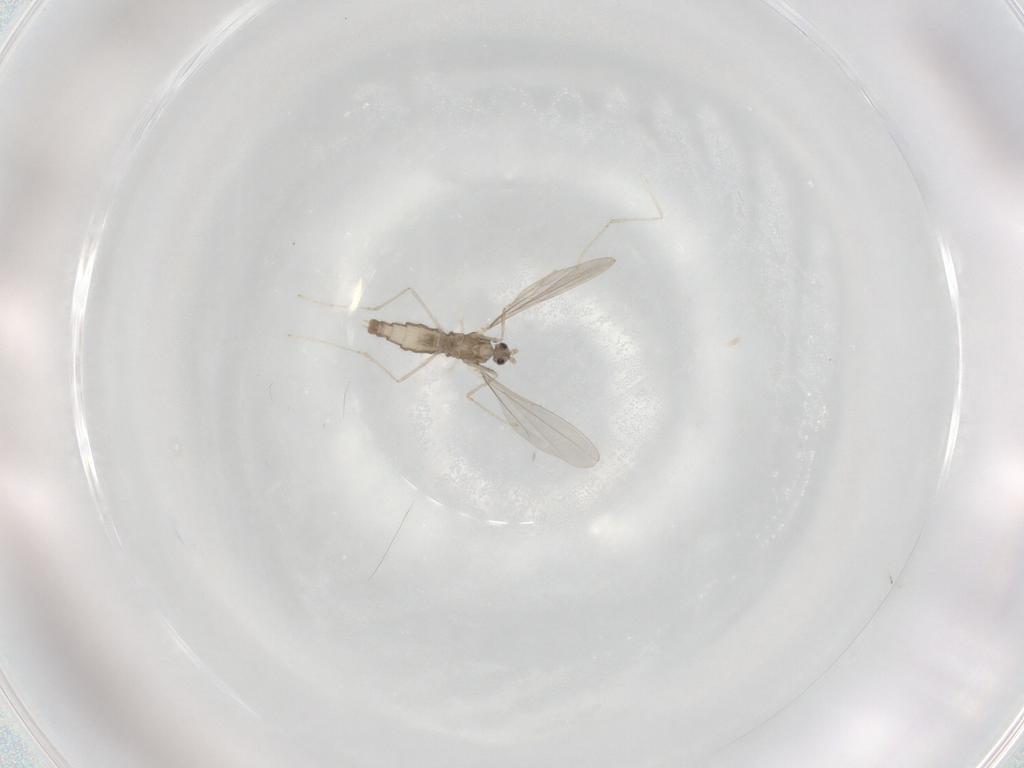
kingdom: Animalia
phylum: Arthropoda
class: Insecta
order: Diptera
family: Cecidomyiidae
